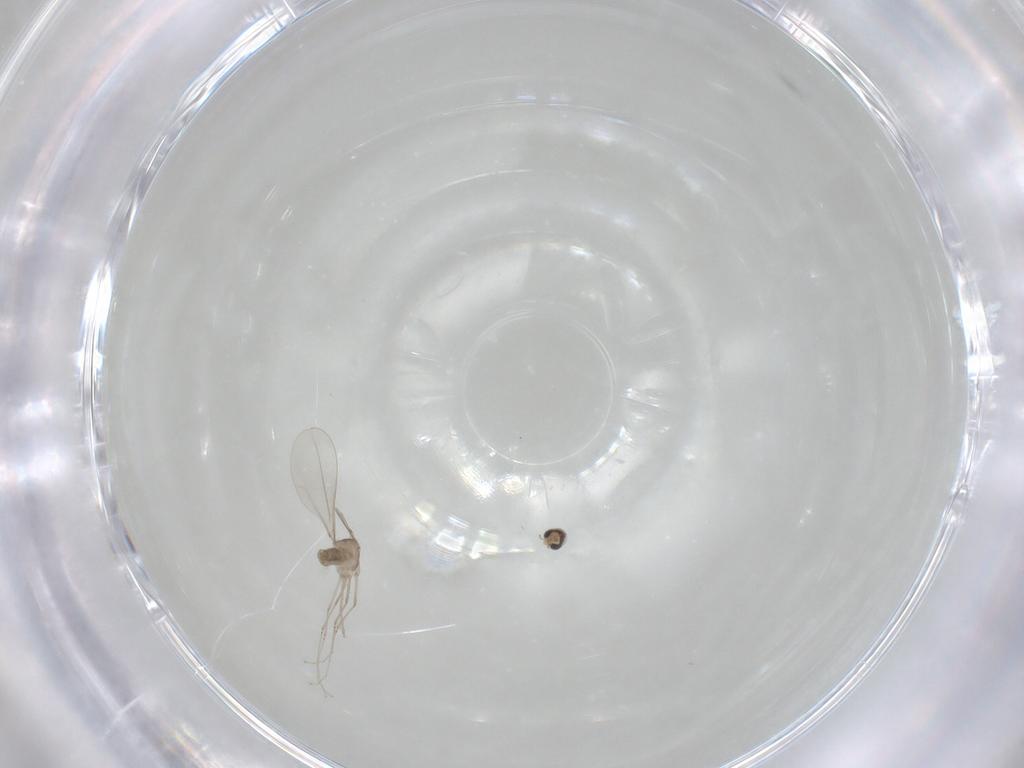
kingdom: Animalia
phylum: Arthropoda
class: Insecta
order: Diptera
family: Cecidomyiidae
